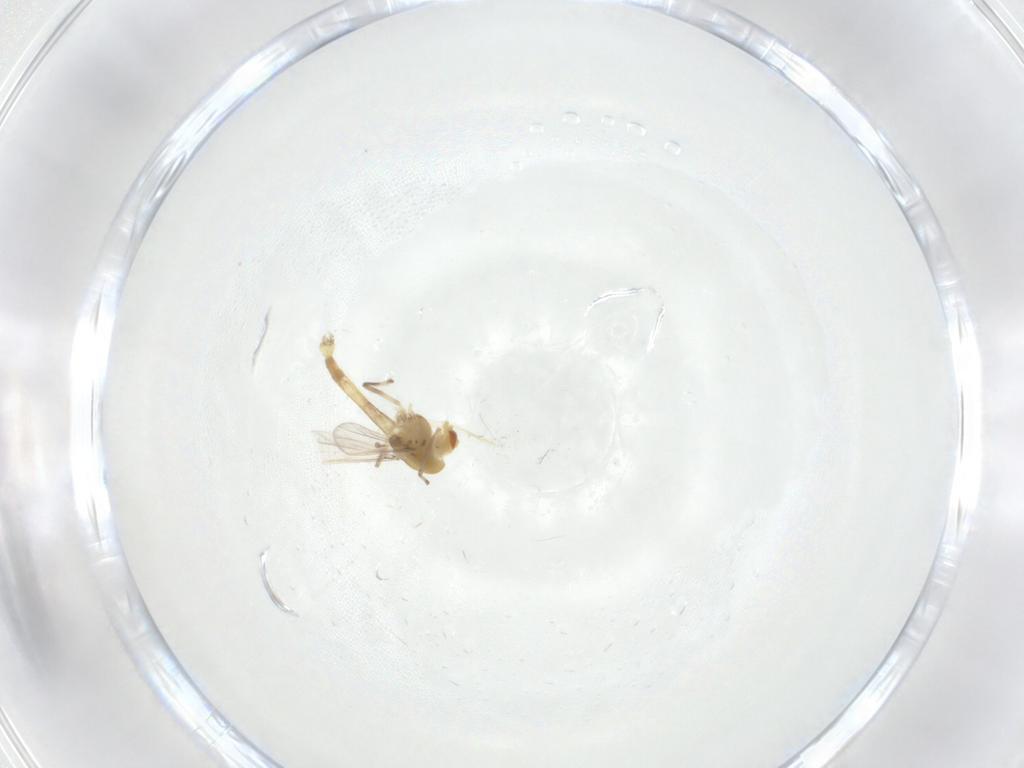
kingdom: Animalia
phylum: Arthropoda
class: Insecta
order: Diptera
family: Chironomidae
